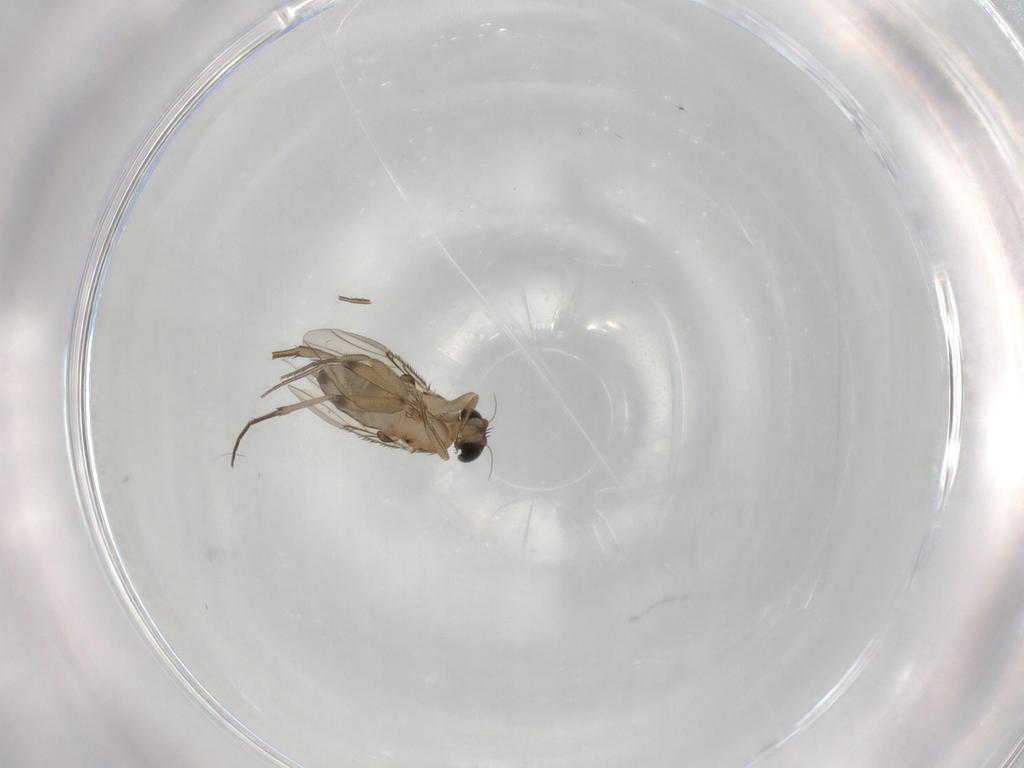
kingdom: Animalia
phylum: Arthropoda
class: Insecta
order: Diptera
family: Phoridae
